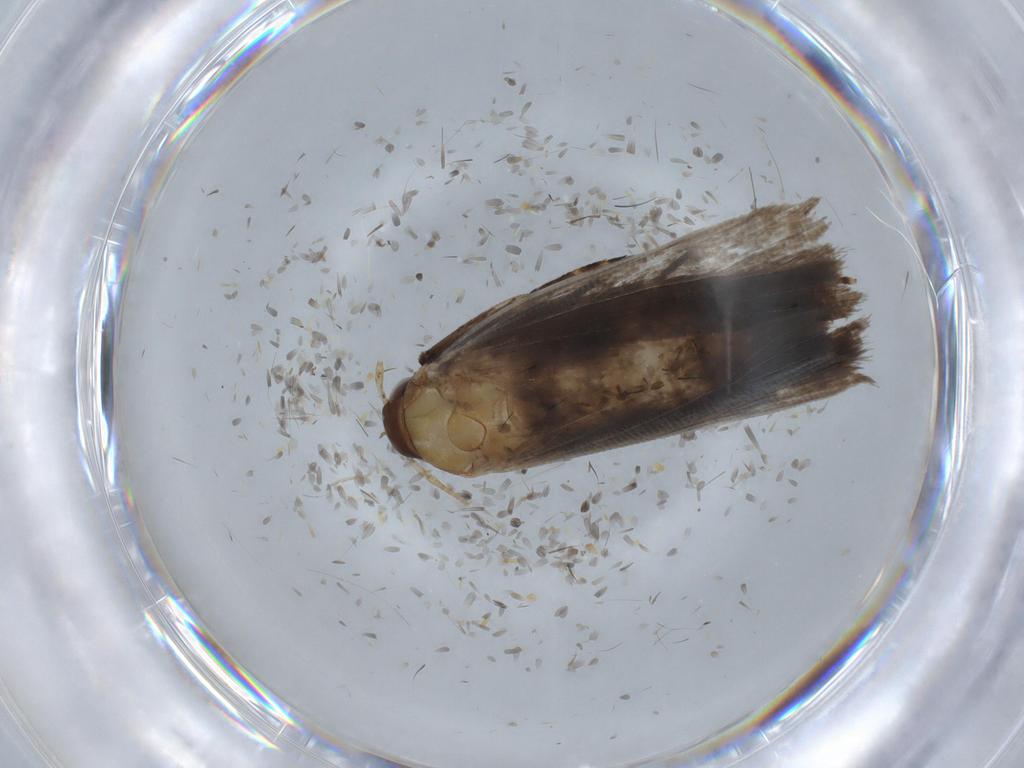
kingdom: Animalia
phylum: Arthropoda
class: Insecta
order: Lepidoptera
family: Gelechiidae
